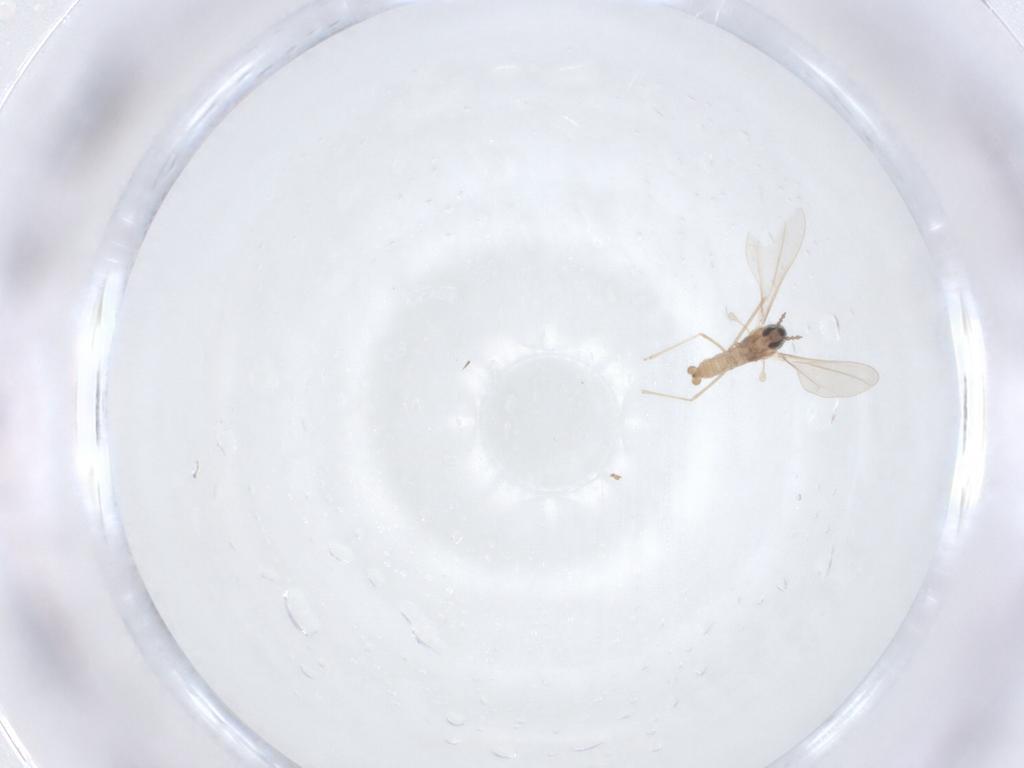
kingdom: Animalia
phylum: Arthropoda
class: Insecta
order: Diptera
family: Cecidomyiidae
